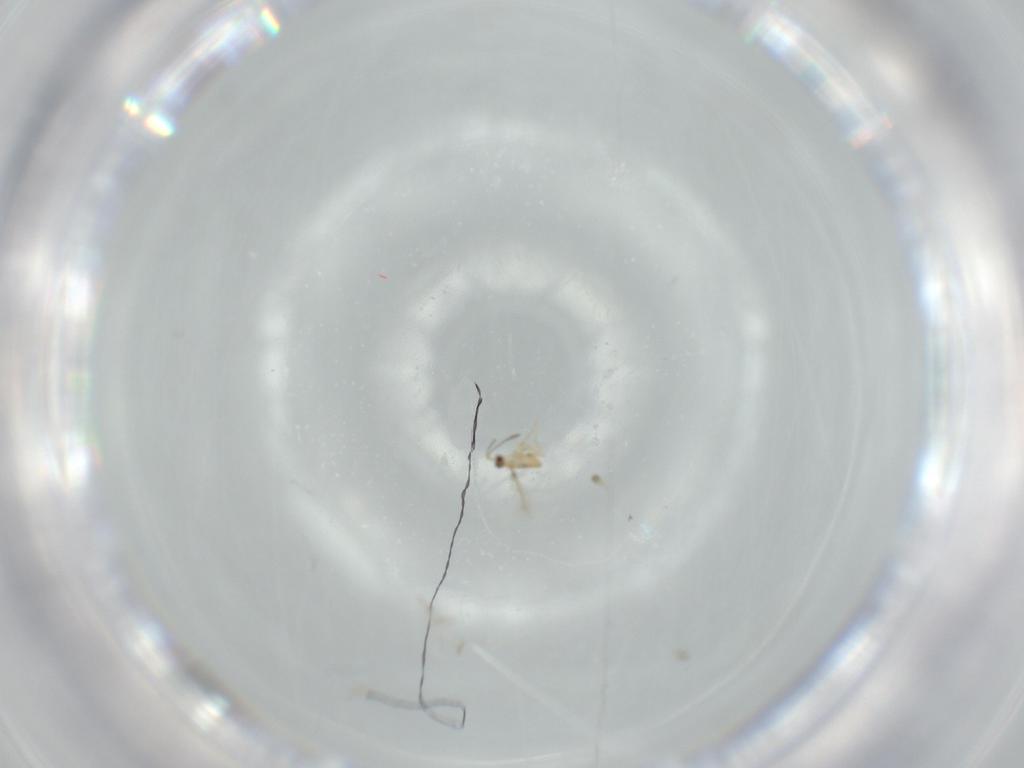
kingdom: Animalia
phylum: Arthropoda
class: Insecta
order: Hemiptera
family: Cicadellidae
